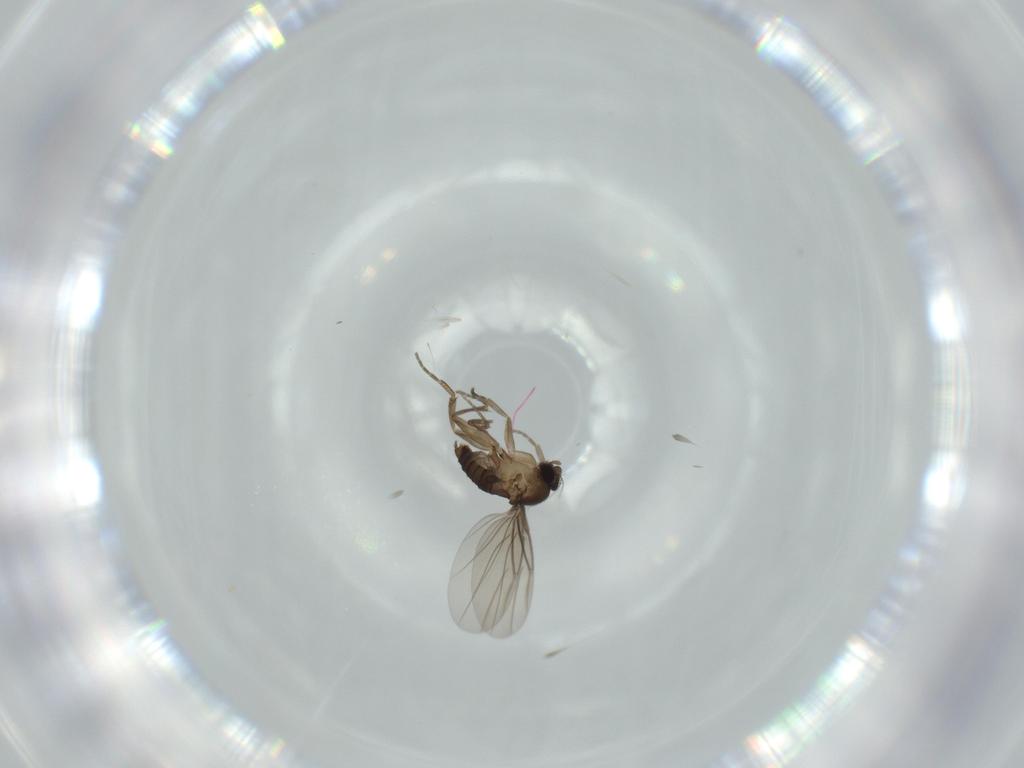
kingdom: Animalia
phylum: Arthropoda
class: Insecta
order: Diptera
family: Phoridae
